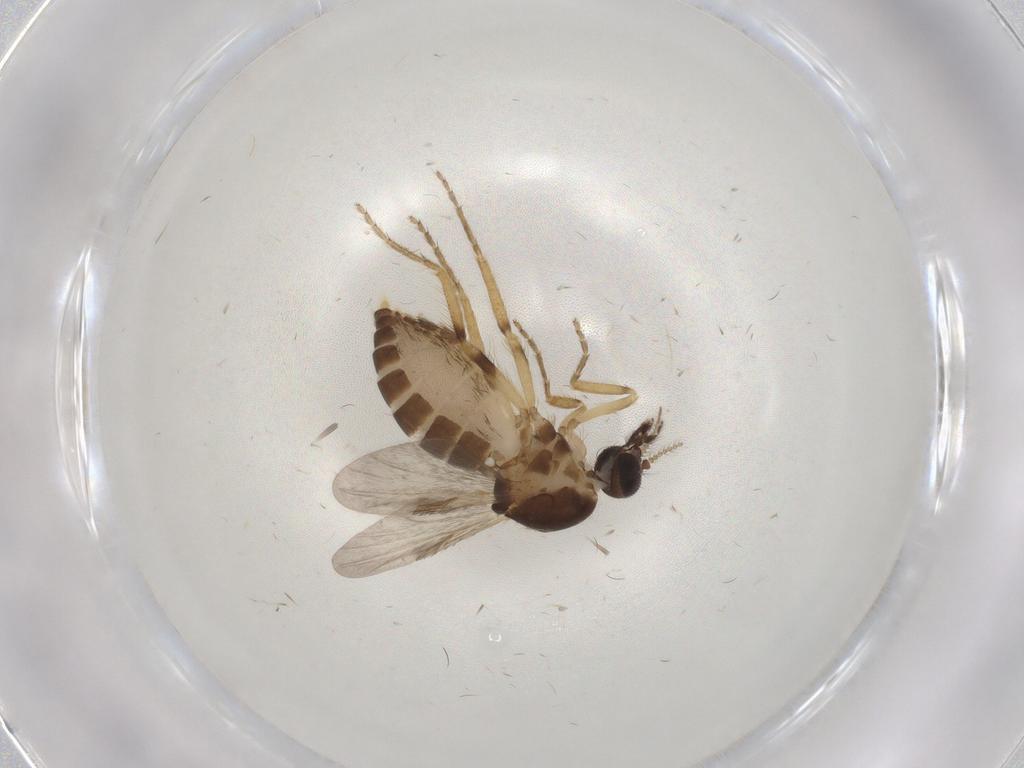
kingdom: Animalia
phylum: Arthropoda
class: Insecta
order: Diptera
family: Ceratopogonidae
